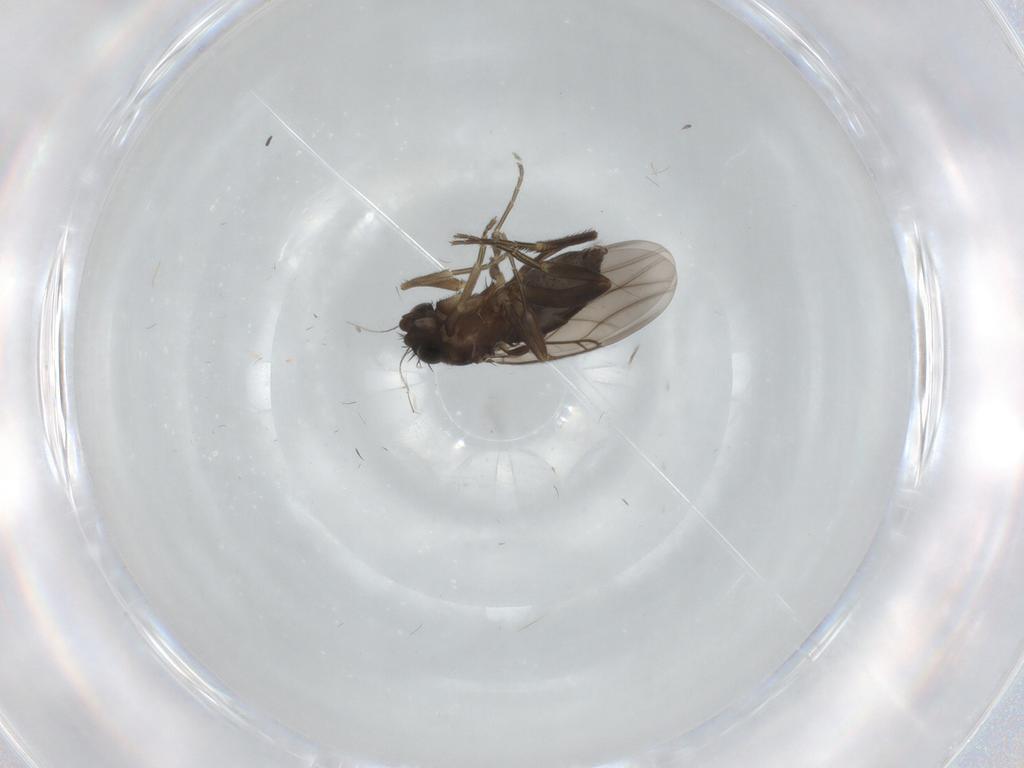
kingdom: Animalia
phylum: Arthropoda
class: Insecta
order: Diptera
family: Phoridae
